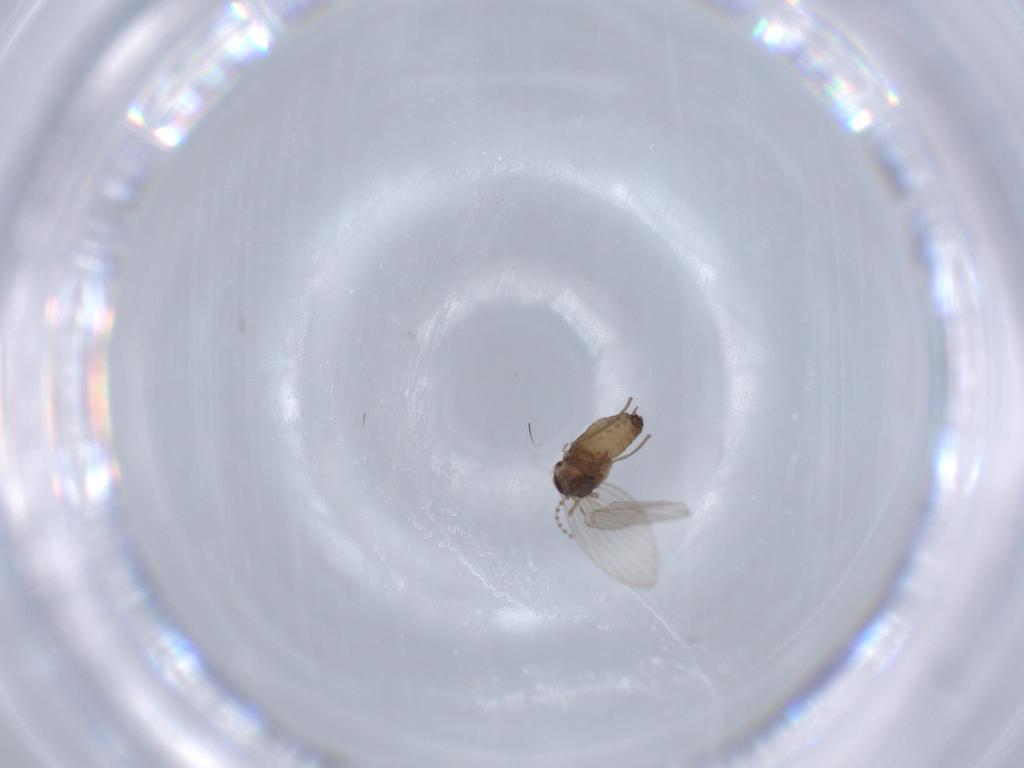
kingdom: Animalia
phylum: Arthropoda
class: Insecta
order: Diptera
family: Psychodidae
